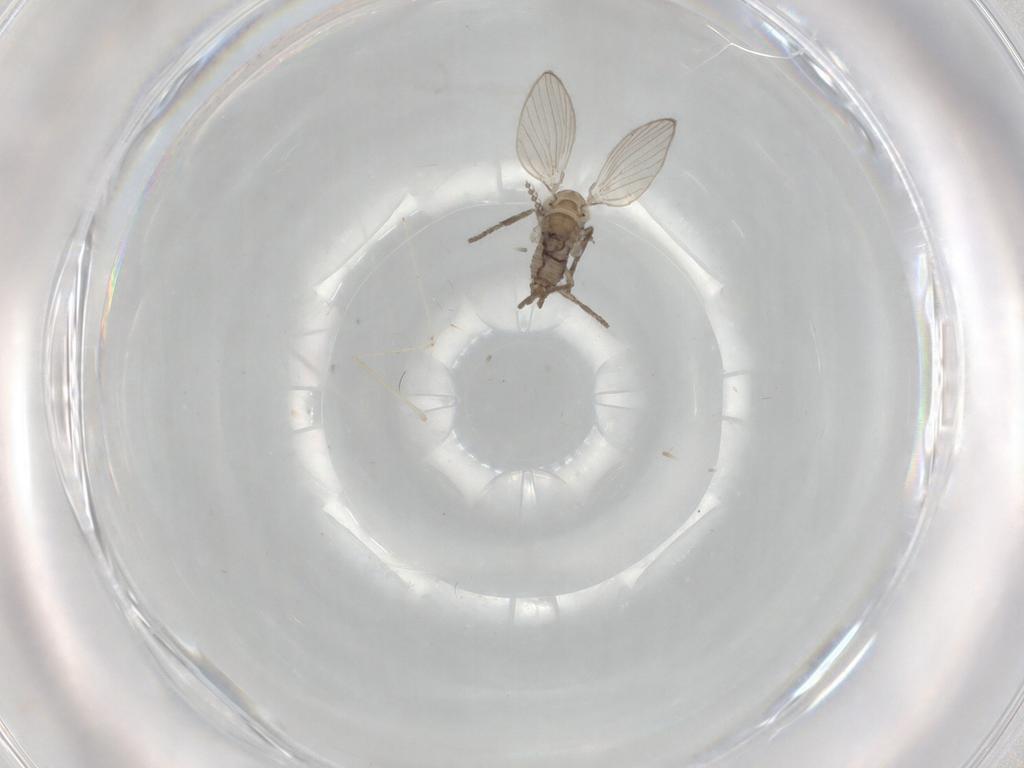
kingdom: Animalia
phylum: Arthropoda
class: Insecta
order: Diptera
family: Psychodidae
